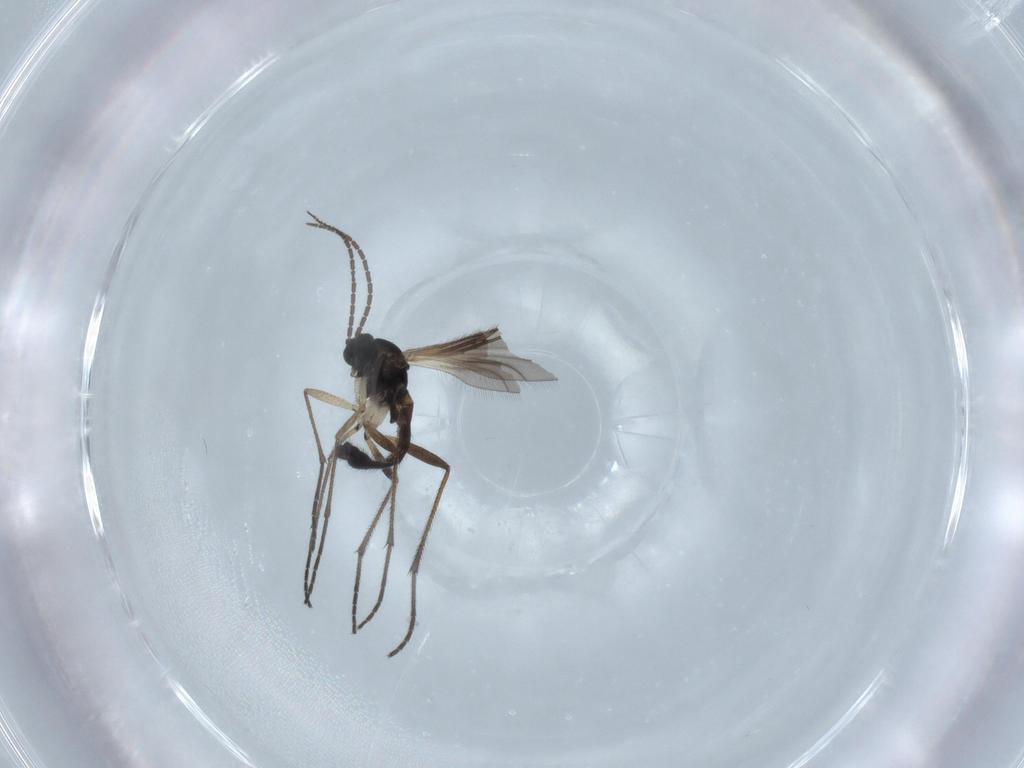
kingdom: Animalia
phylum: Arthropoda
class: Insecta
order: Diptera
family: Sciaridae
